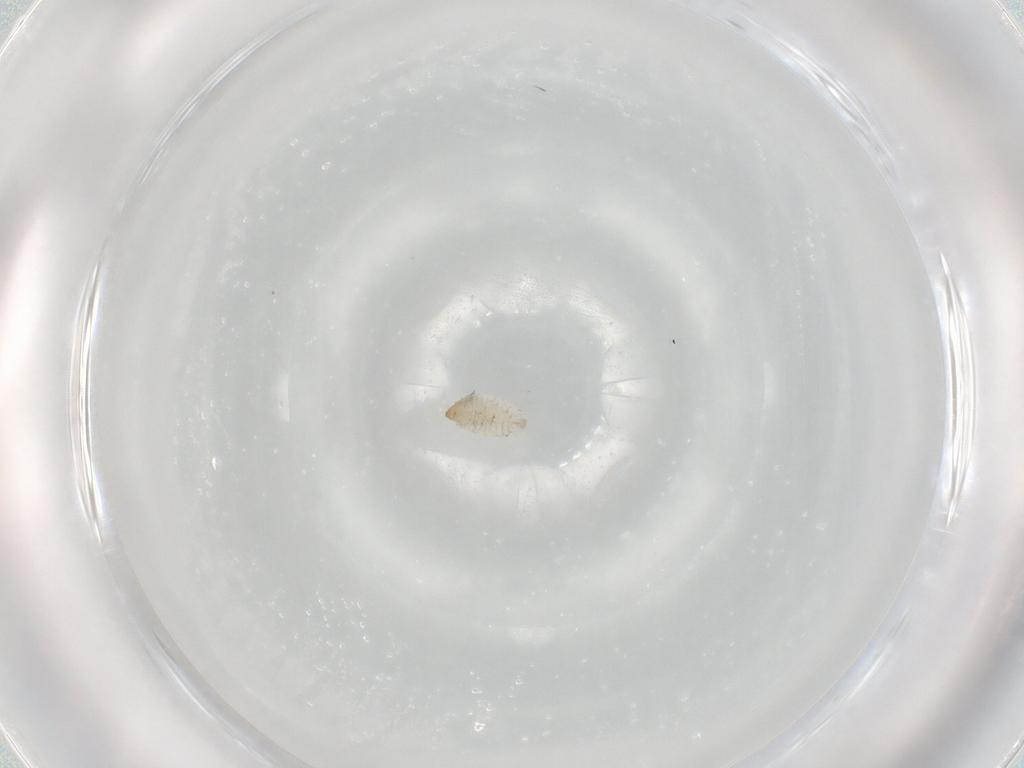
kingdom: Animalia
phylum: Arthropoda
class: Insecta
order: Diptera
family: Stratiomyidae
